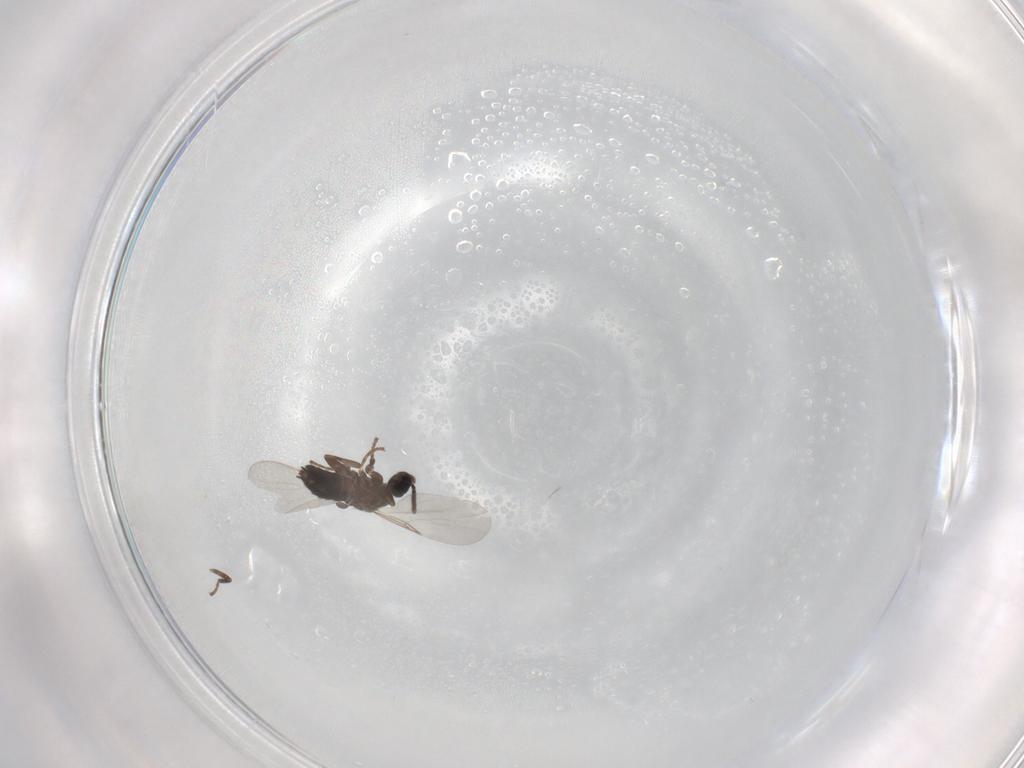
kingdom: Animalia
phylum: Arthropoda
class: Insecta
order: Diptera
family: Scatopsidae
